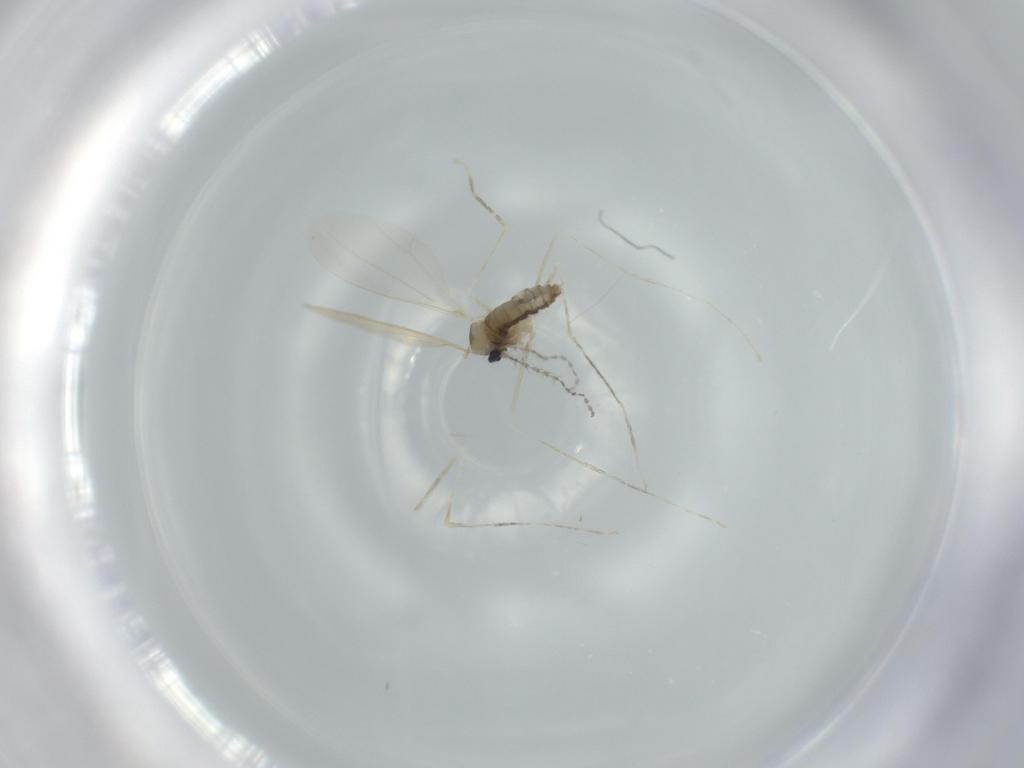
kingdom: Animalia
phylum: Arthropoda
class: Insecta
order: Diptera
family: Cecidomyiidae
